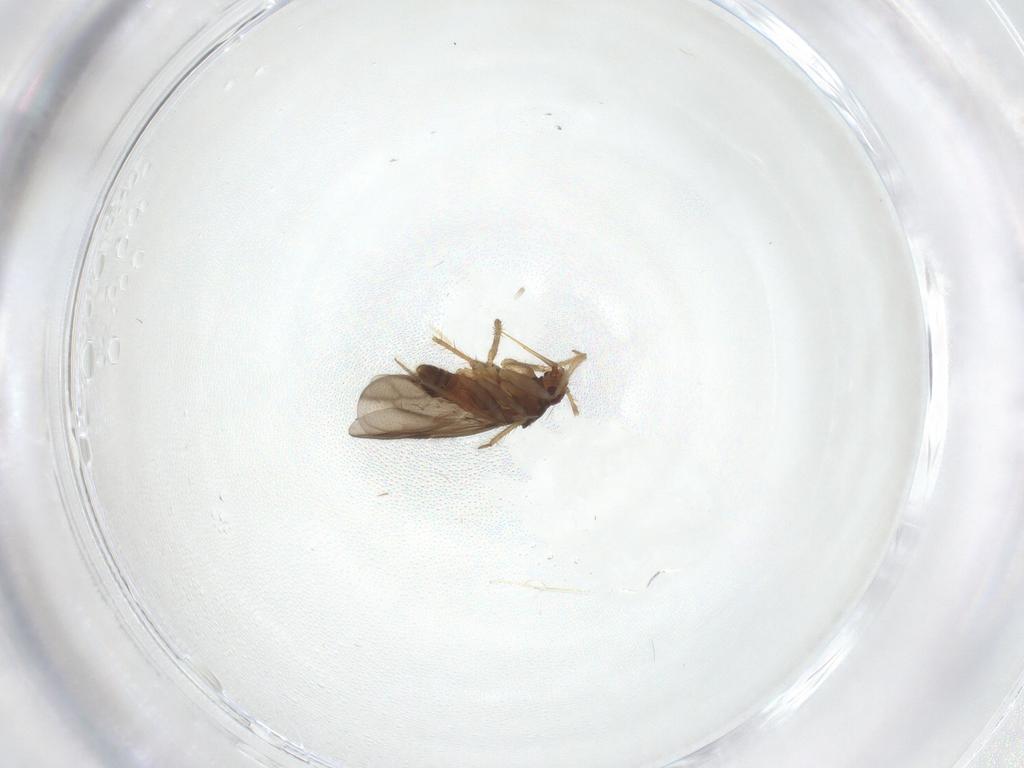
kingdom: Animalia
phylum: Arthropoda
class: Insecta
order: Hemiptera
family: Ceratocombidae
